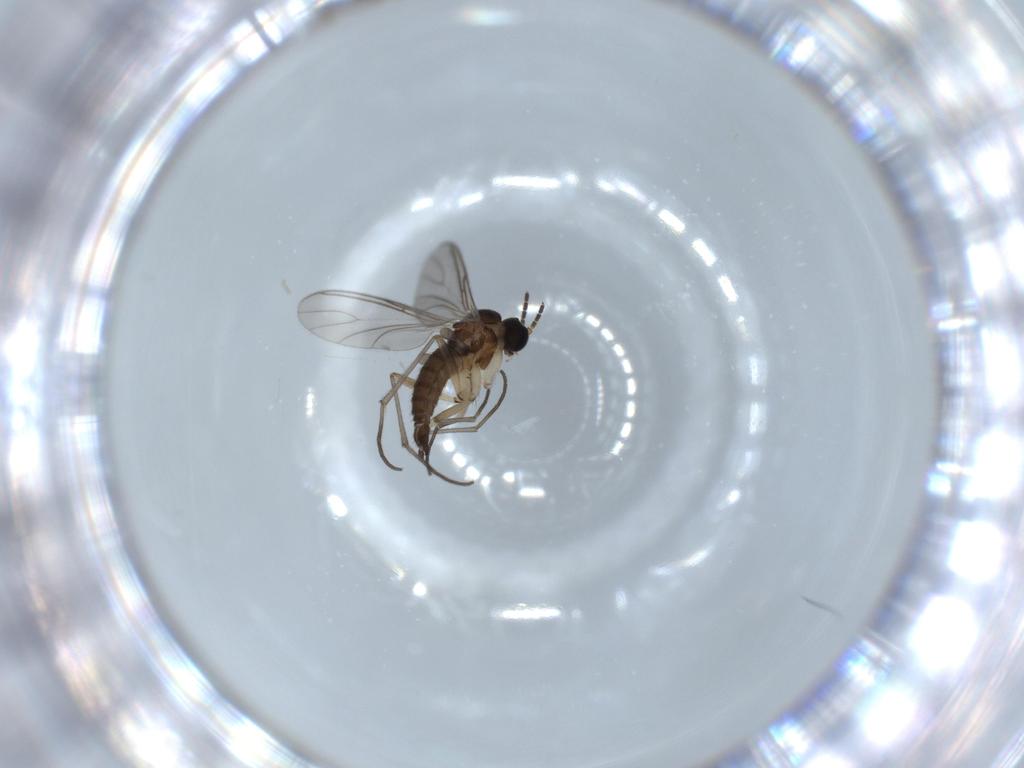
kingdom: Animalia
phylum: Arthropoda
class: Insecta
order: Diptera
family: Sciaridae
